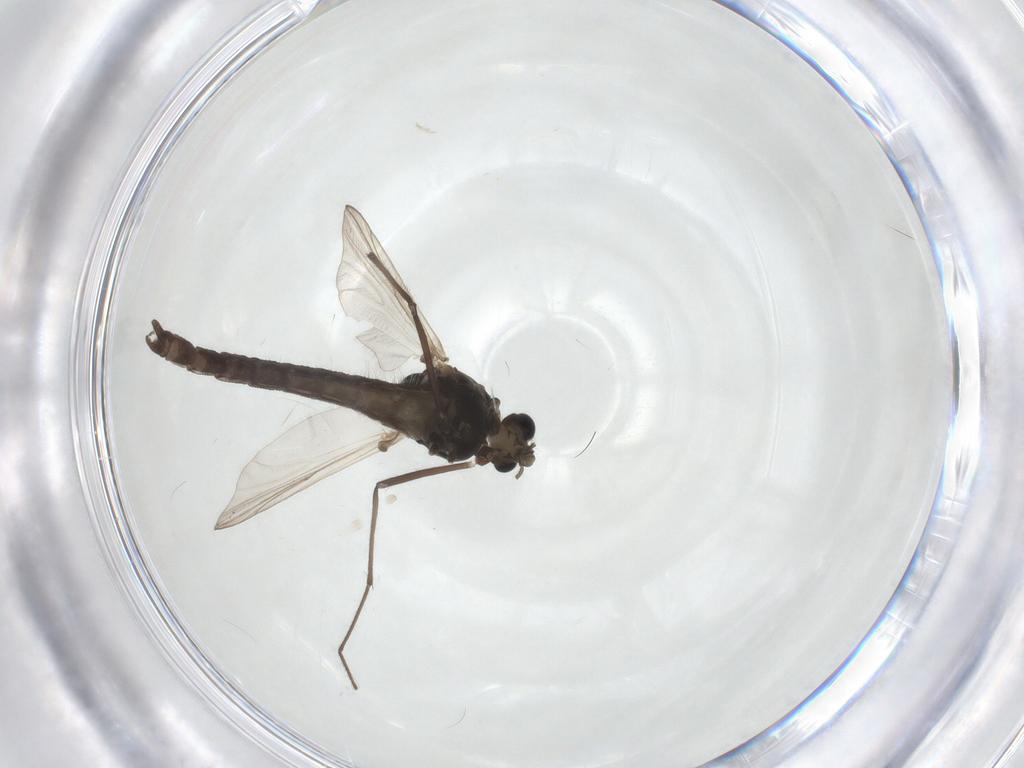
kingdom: Animalia
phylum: Arthropoda
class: Insecta
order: Diptera
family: Chironomidae
